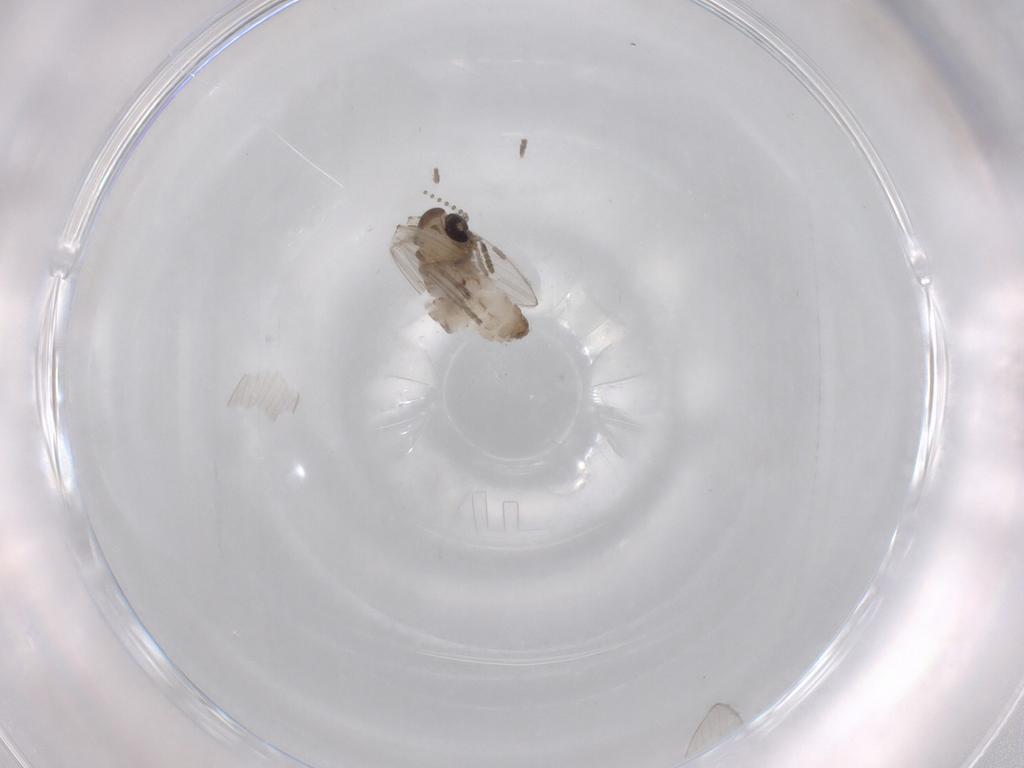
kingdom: Animalia
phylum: Arthropoda
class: Insecta
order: Diptera
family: Psychodidae
